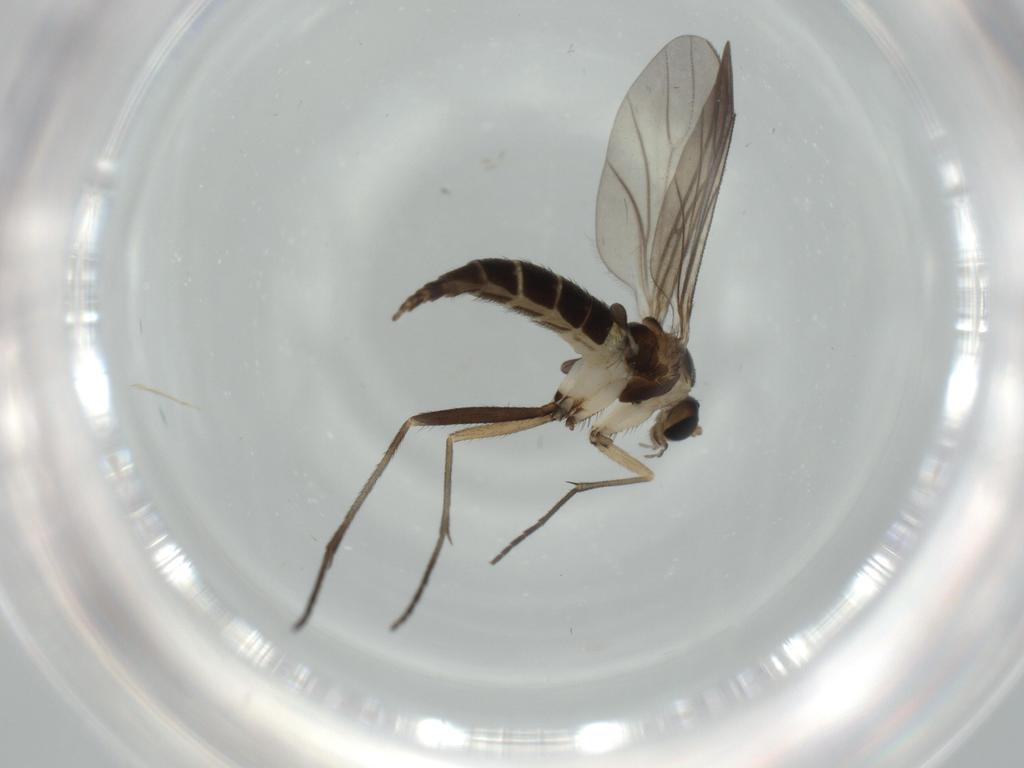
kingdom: Animalia
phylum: Arthropoda
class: Insecta
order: Diptera
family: Sciaridae
